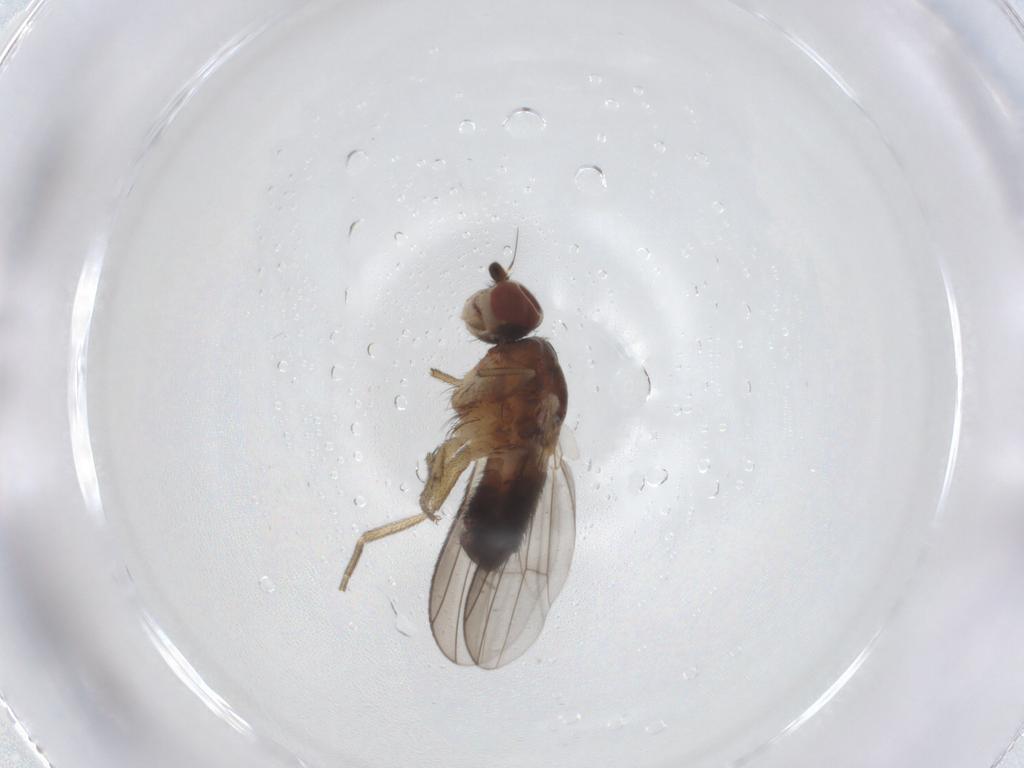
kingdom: Animalia
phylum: Arthropoda
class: Insecta
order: Diptera
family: Heleomyzidae
